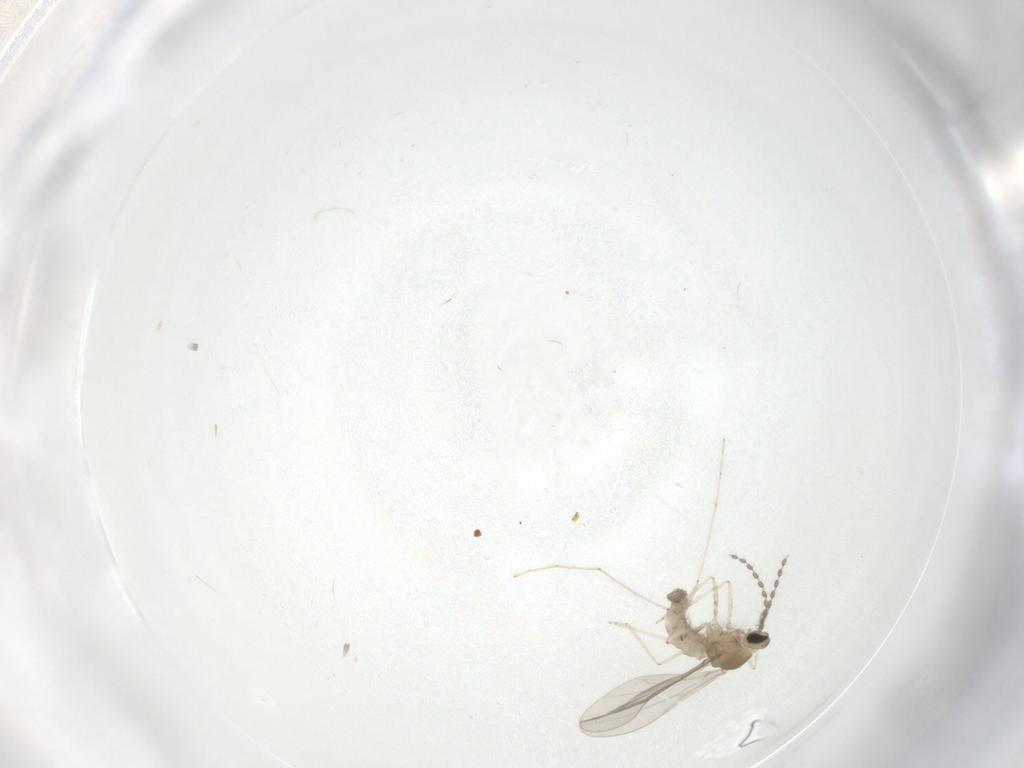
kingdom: Animalia
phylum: Arthropoda
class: Insecta
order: Diptera
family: Cecidomyiidae
